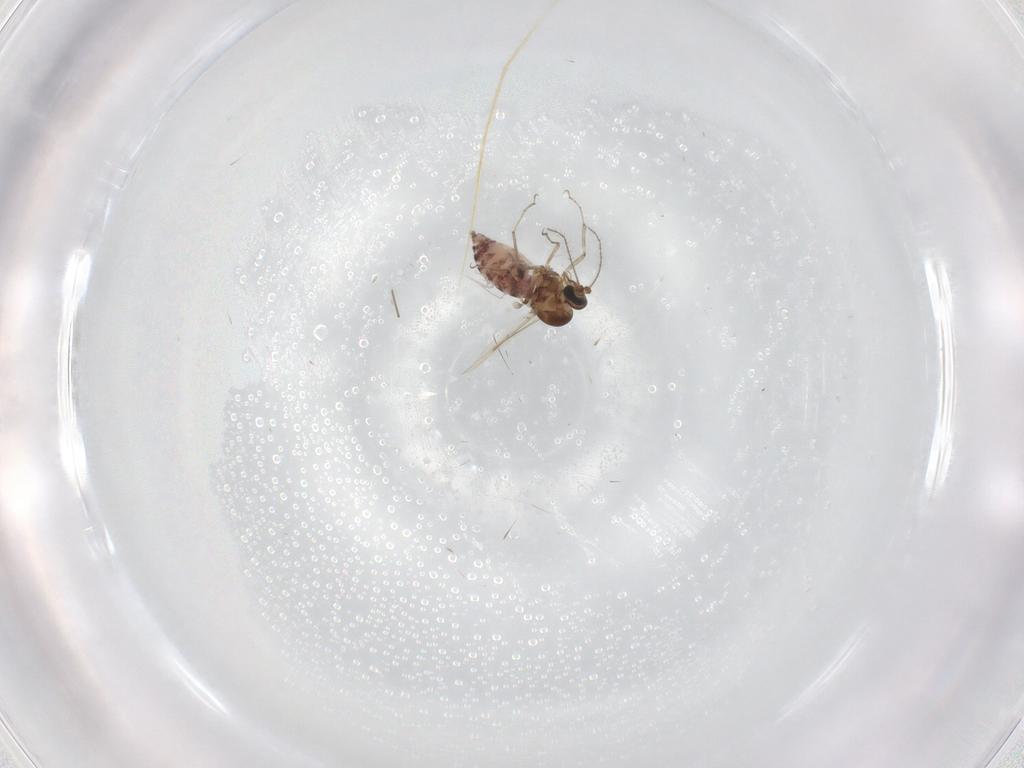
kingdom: Animalia
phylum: Arthropoda
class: Insecta
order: Diptera
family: Ceratopogonidae
